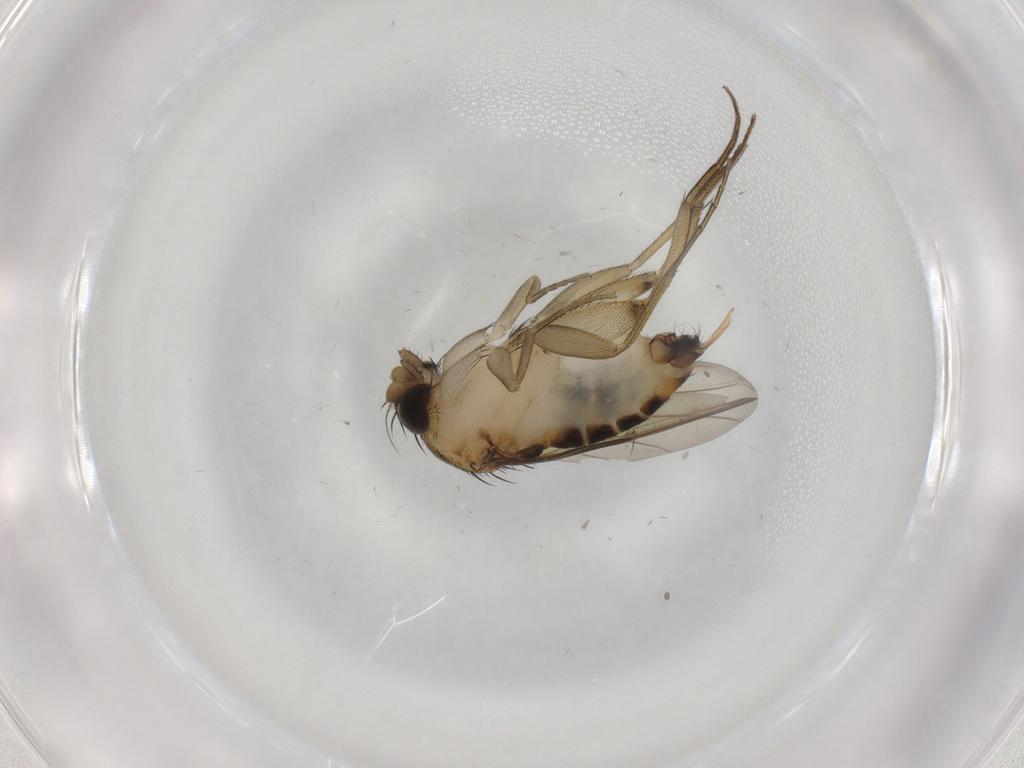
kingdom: Animalia
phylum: Arthropoda
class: Insecta
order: Diptera
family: Phoridae
